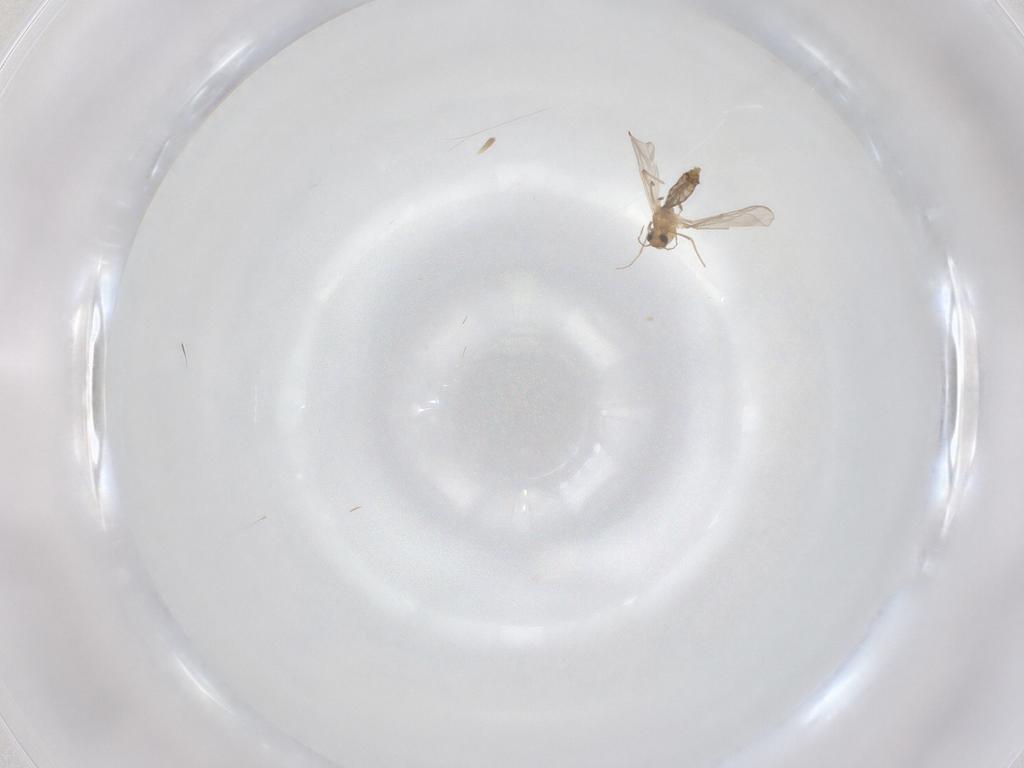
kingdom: Animalia
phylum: Arthropoda
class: Insecta
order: Diptera
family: Chironomidae
